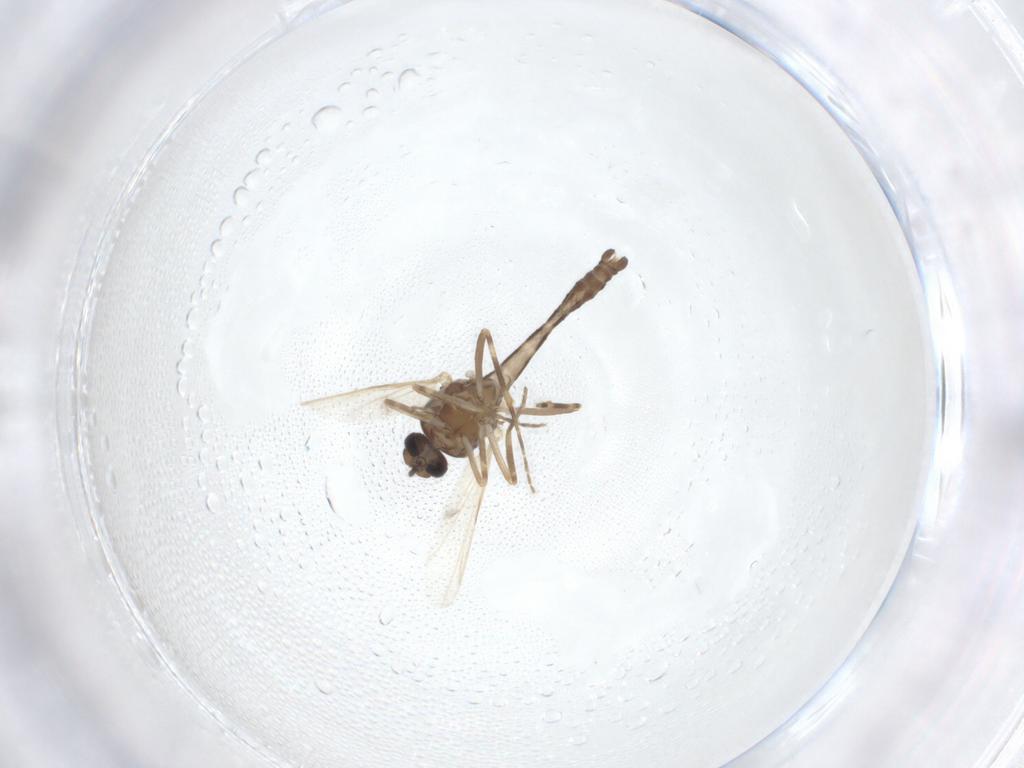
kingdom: Animalia
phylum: Arthropoda
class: Insecta
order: Diptera
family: Ceratopogonidae
